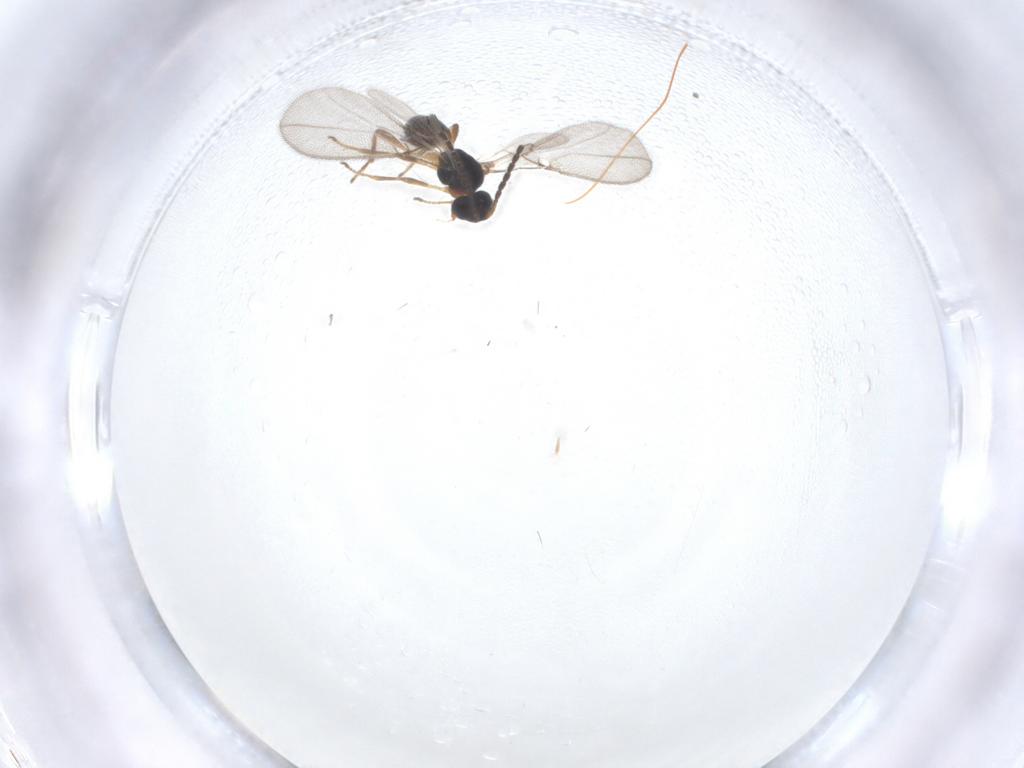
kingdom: Animalia
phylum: Arthropoda
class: Insecta
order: Hymenoptera
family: Braconidae
